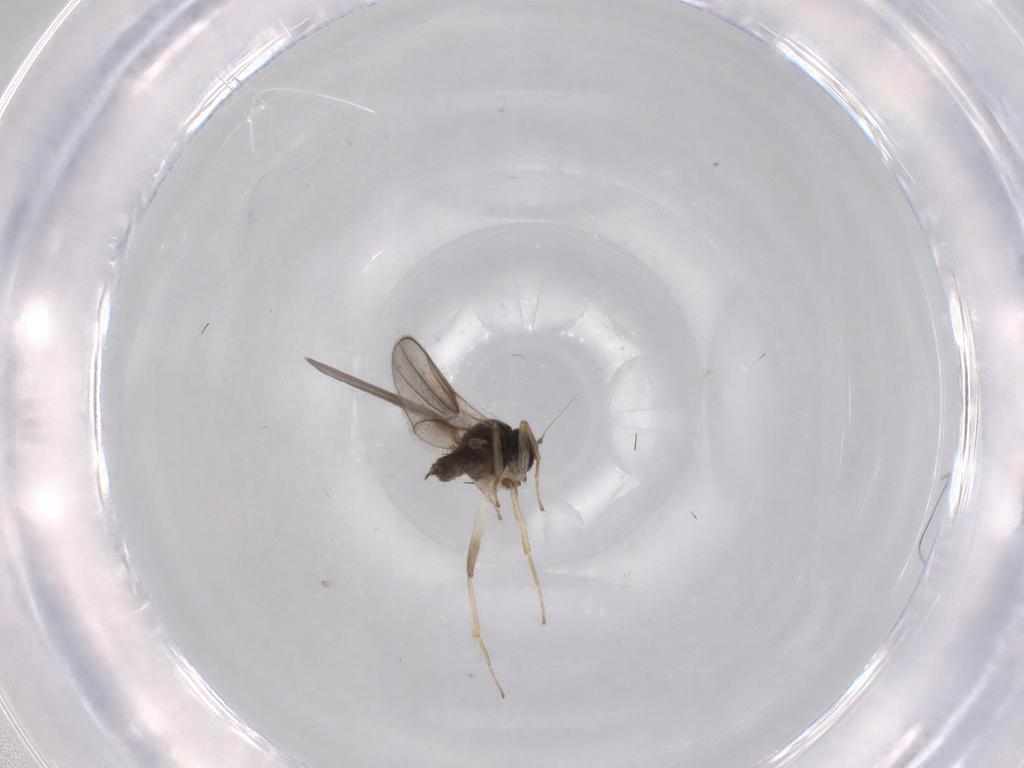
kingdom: Animalia
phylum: Arthropoda
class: Insecta
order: Diptera
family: Hybotidae
